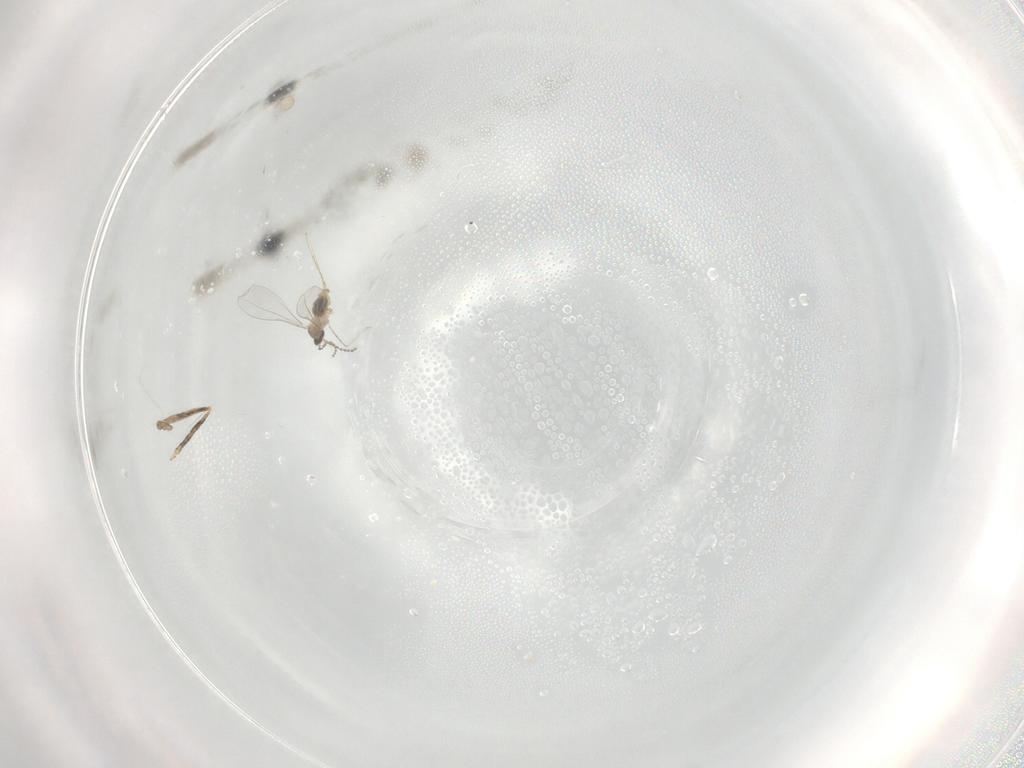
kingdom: Animalia
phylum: Arthropoda
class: Insecta
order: Diptera
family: Cecidomyiidae
